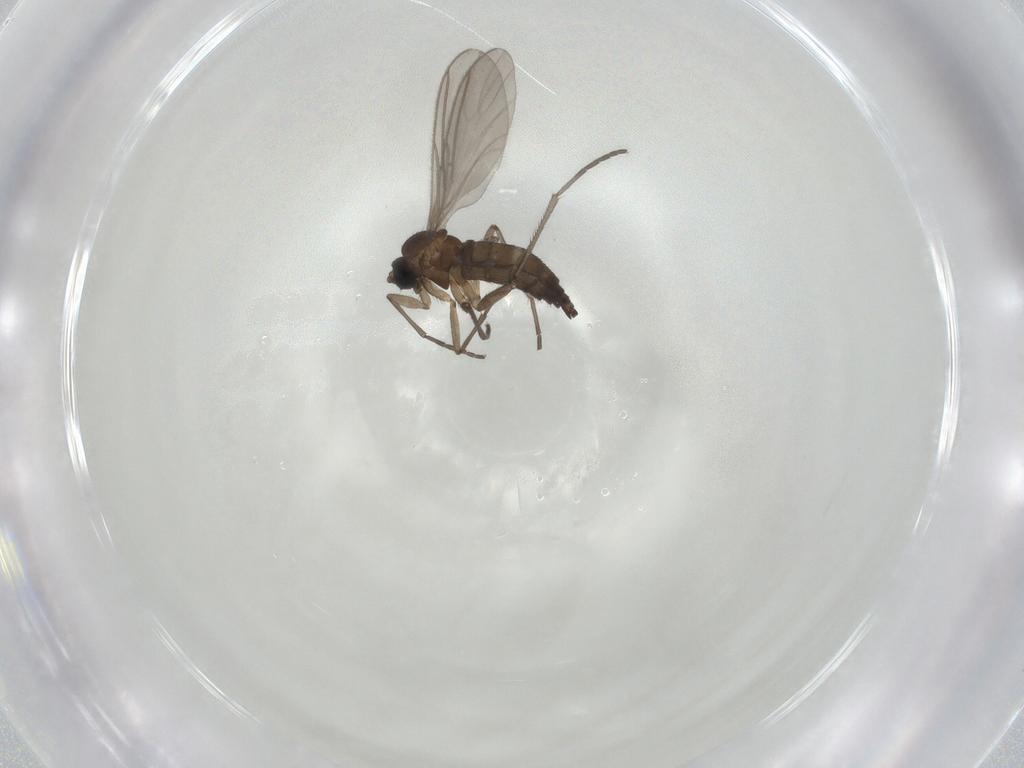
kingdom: Animalia
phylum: Arthropoda
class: Insecta
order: Diptera
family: Sciaridae
